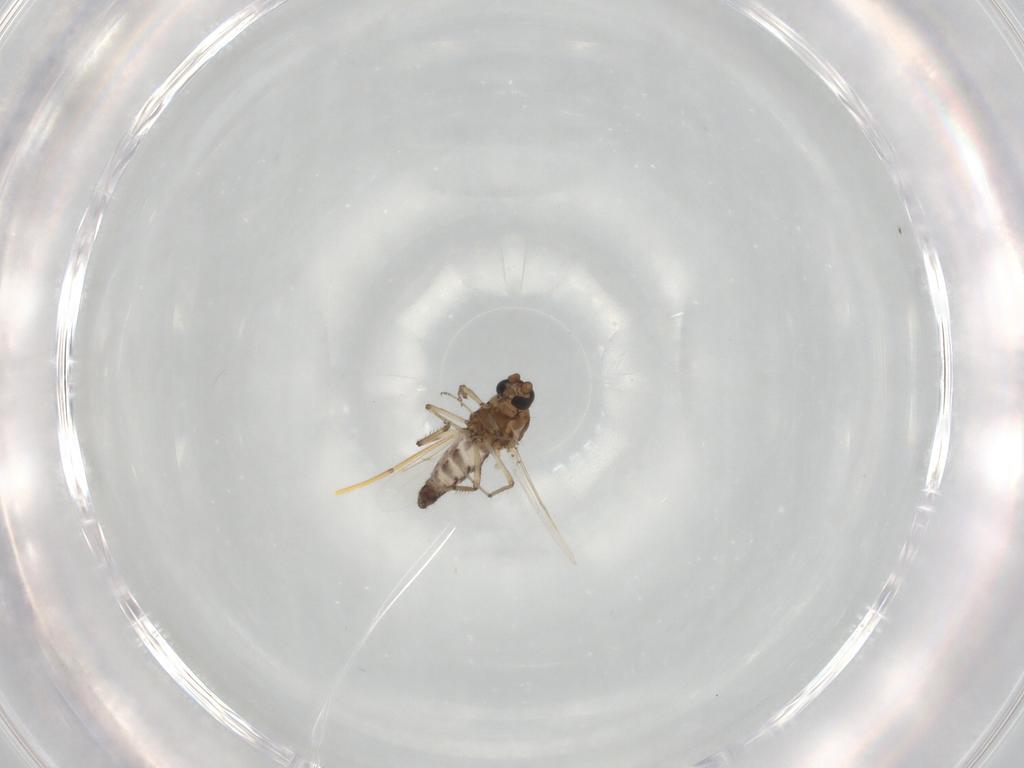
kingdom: Animalia
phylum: Arthropoda
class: Insecta
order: Diptera
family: Ceratopogonidae
